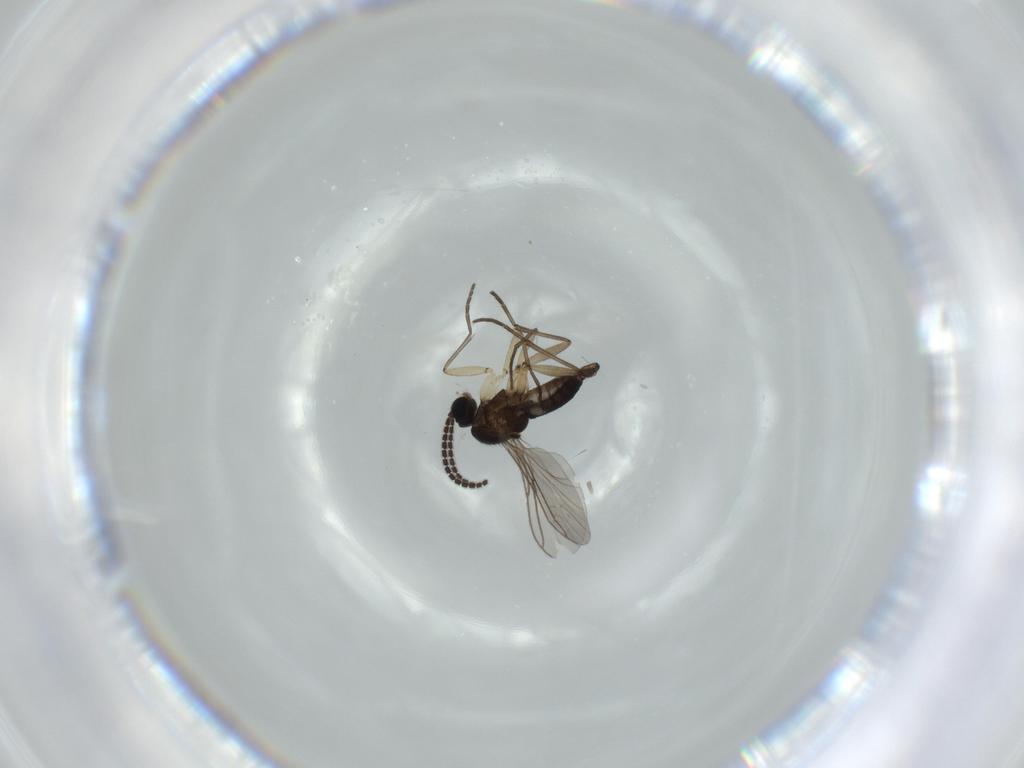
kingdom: Animalia
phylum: Arthropoda
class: Insecta
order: Diptera
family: Sciaridae
